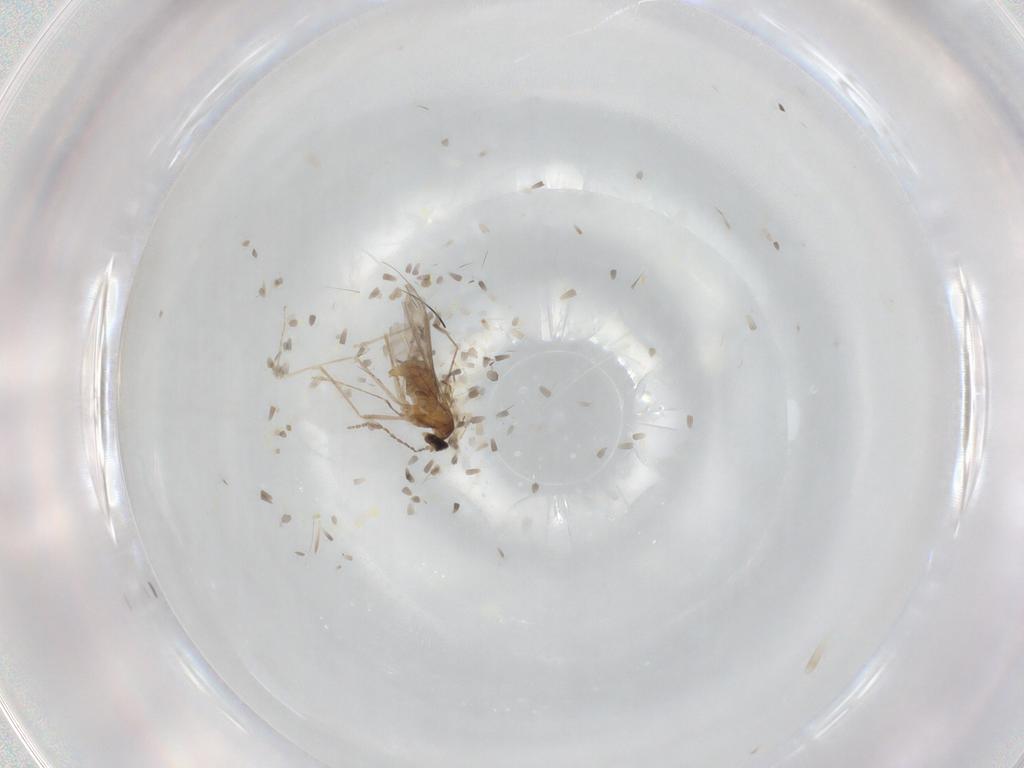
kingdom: Animalia
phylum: Arthropoda
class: Insecta
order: Diptera
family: Cecidomyiidae
